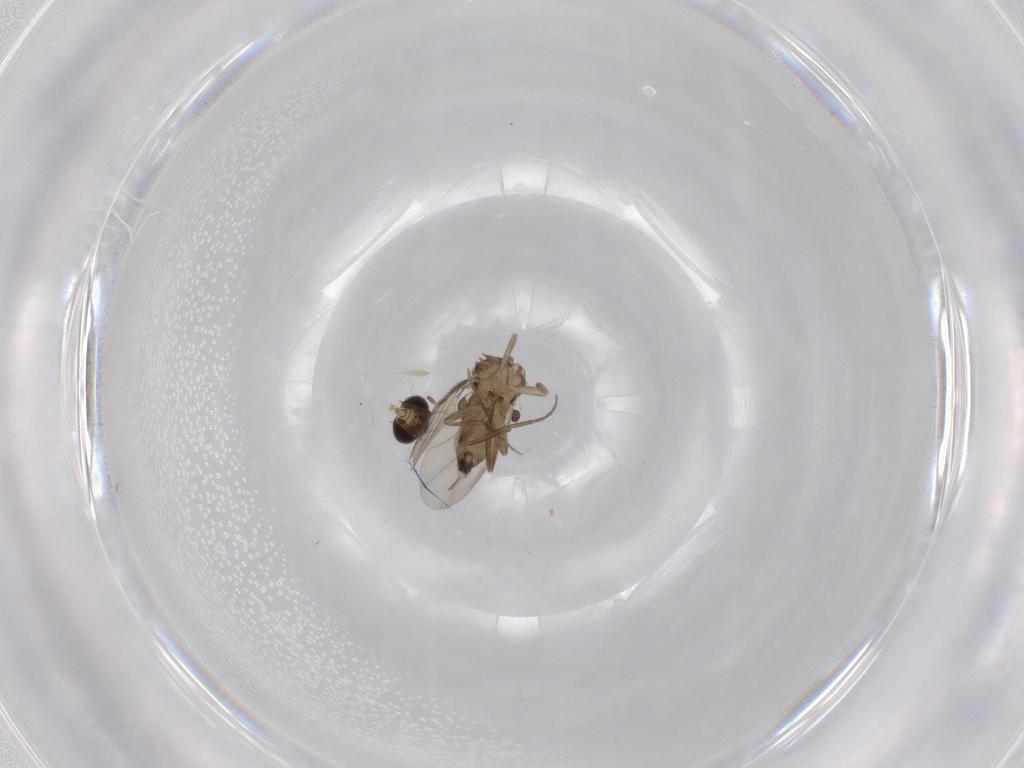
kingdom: Animalia
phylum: Arthropoda
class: Insecta
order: Diptera
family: Phoridae
